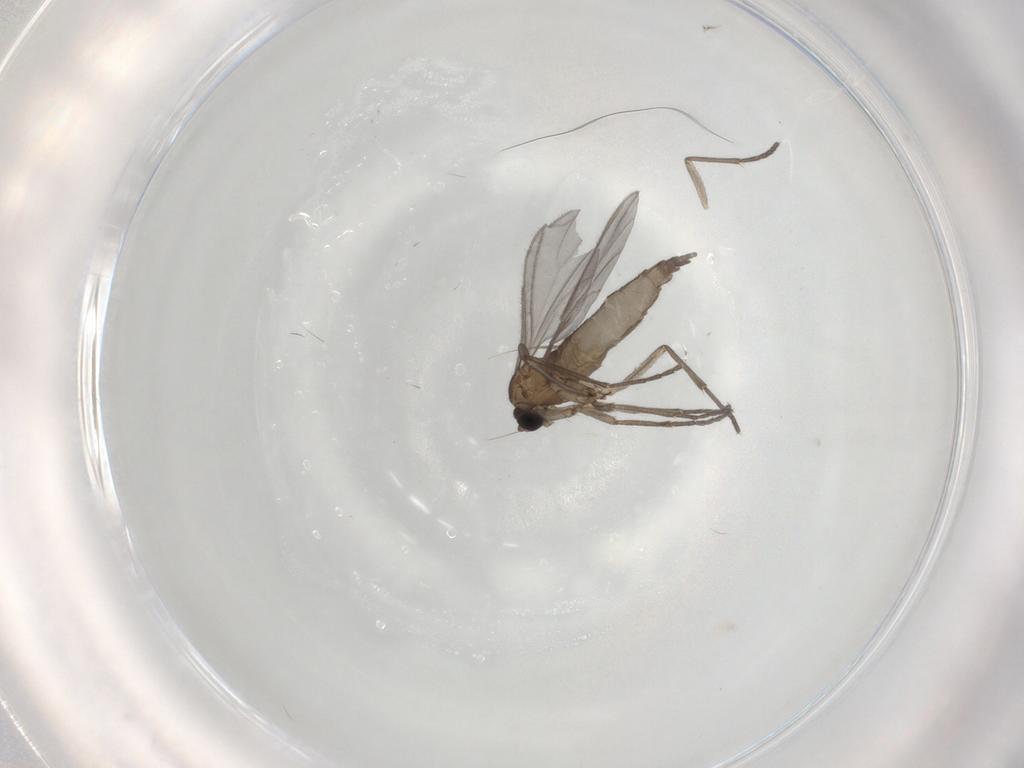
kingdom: Animalia
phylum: Arthropoda
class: Insecta
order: Diptera
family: Sciaridae
